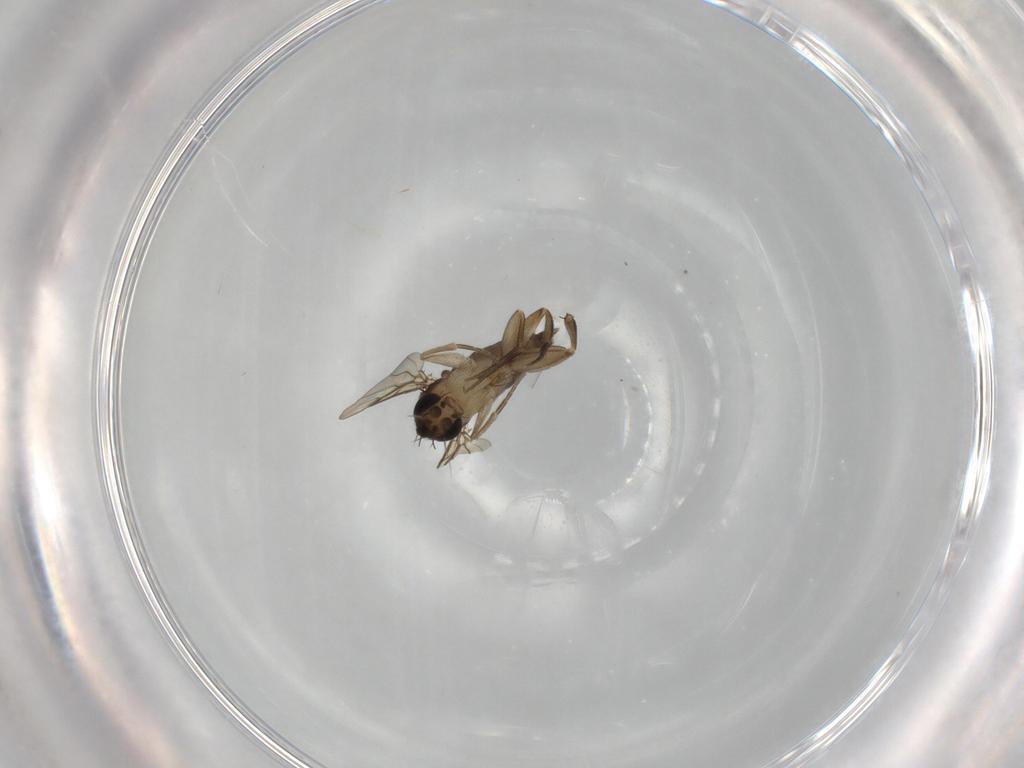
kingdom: Animalia
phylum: Arthropoda
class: Insecta
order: Diptera
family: Phoridae
